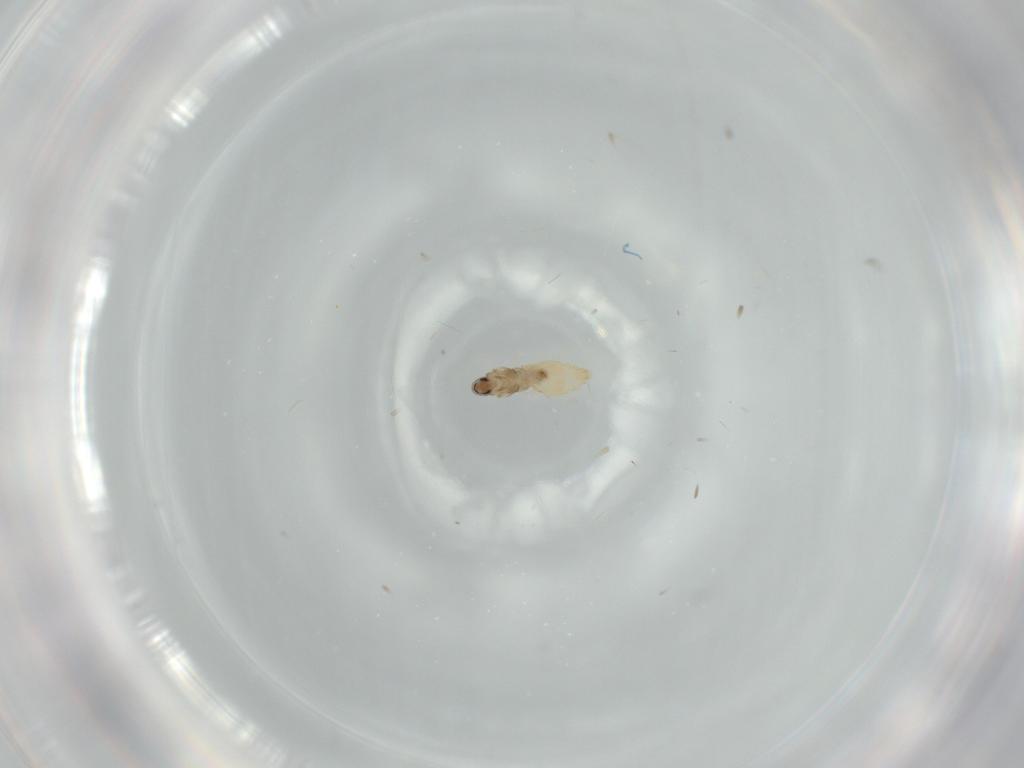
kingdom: Animalia
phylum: Arthropoda
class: Insecta
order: Diptera
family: Cecidomyiidae
